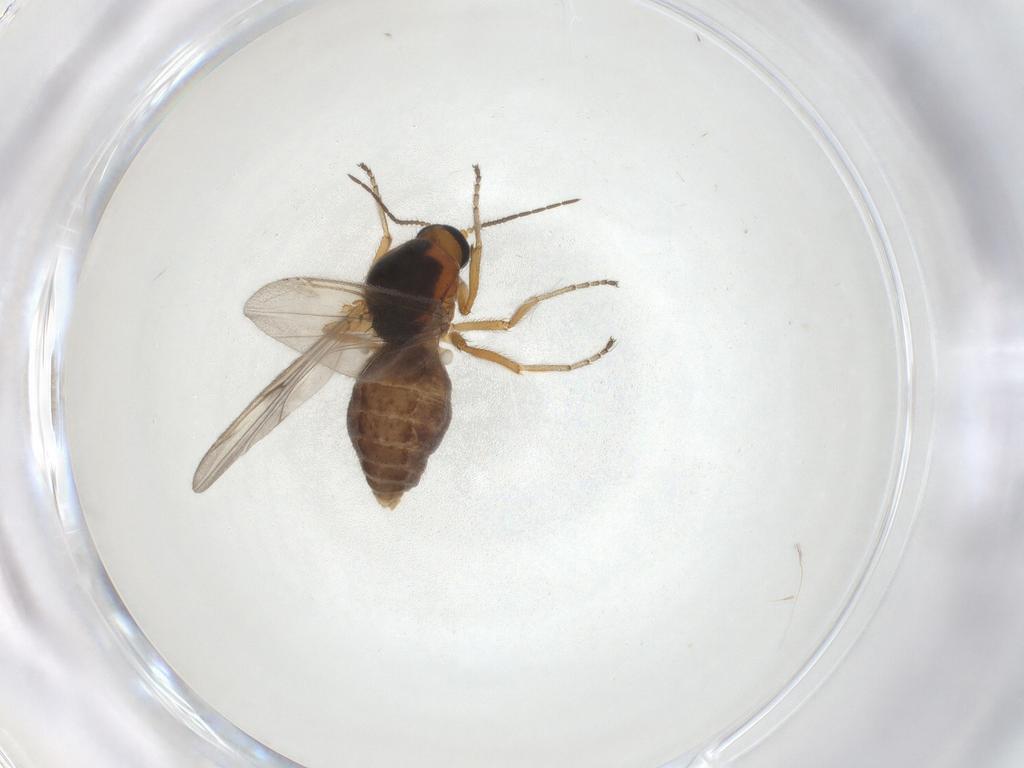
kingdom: Animalia
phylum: Arthropoda
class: Insecta
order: Diptera
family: Ceratopogonidae
